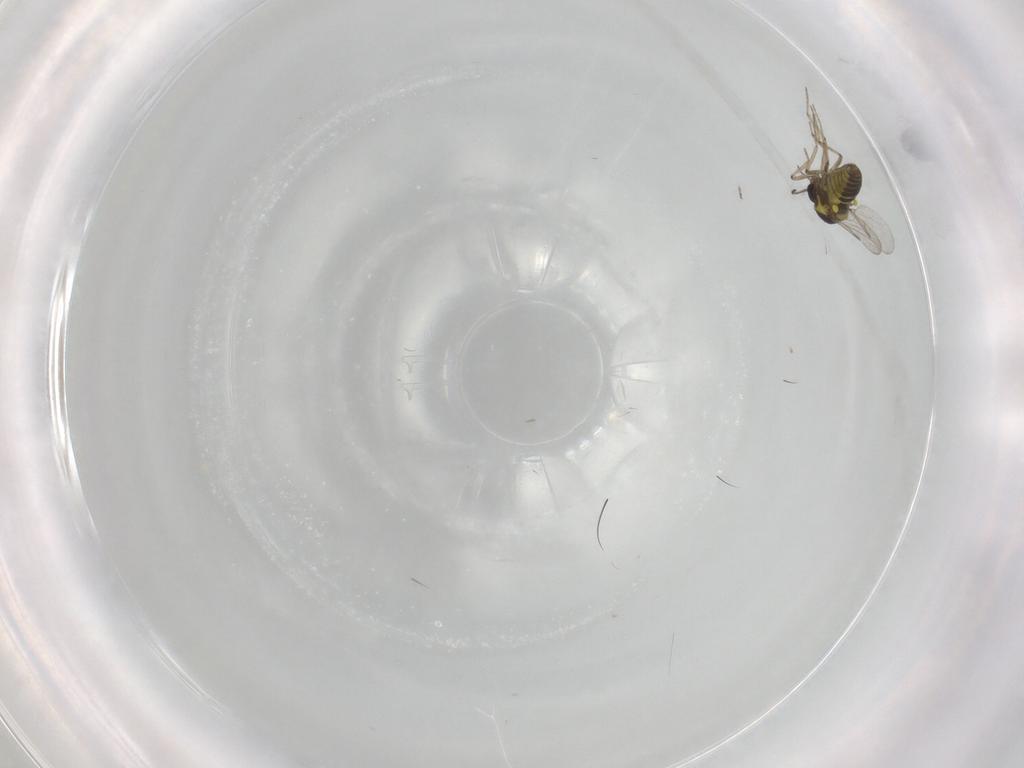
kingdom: Animalia
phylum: Arthropoda
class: Insecta
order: Diptera
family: Ceratopogonidae
